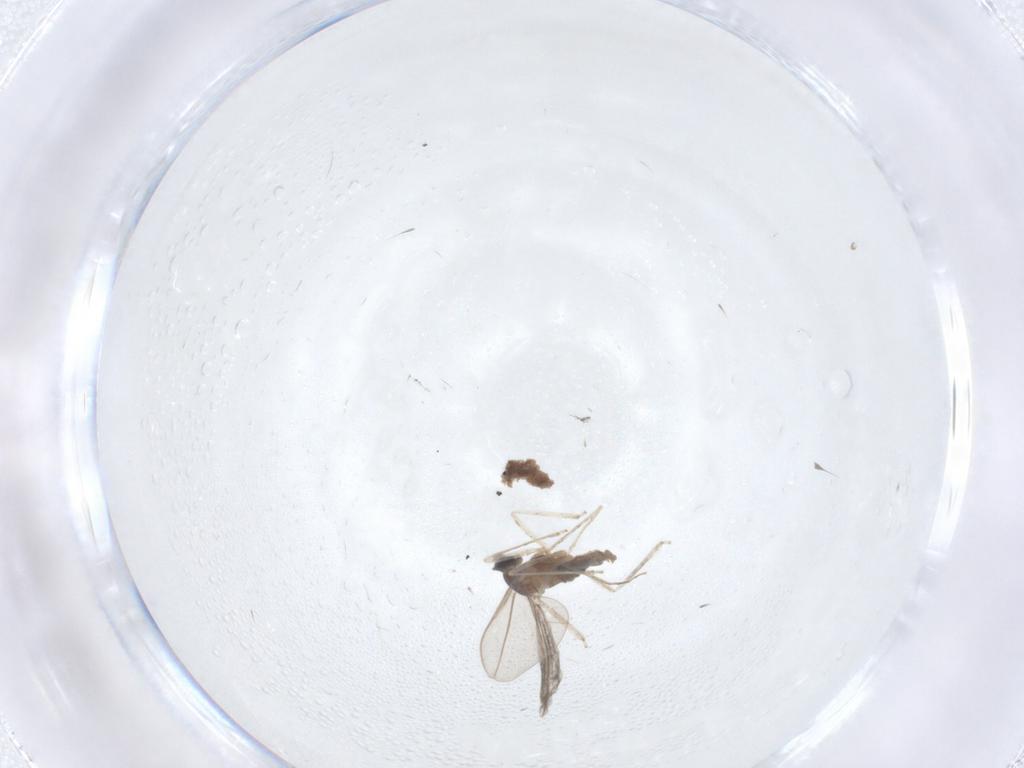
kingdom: Animalia
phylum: Arthropoda
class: Insecta
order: Diptera
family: Cecidomyiidae
